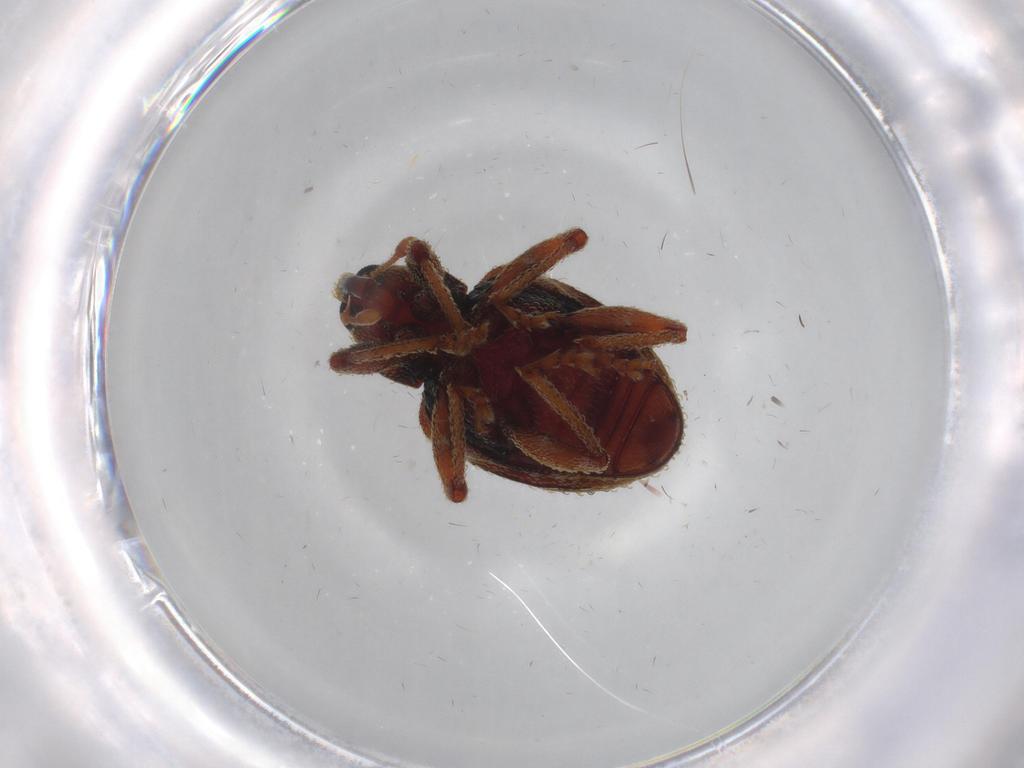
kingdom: Animalia
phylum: Arthropoda
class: Insecta
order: Coleoptera
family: Curculionidae
